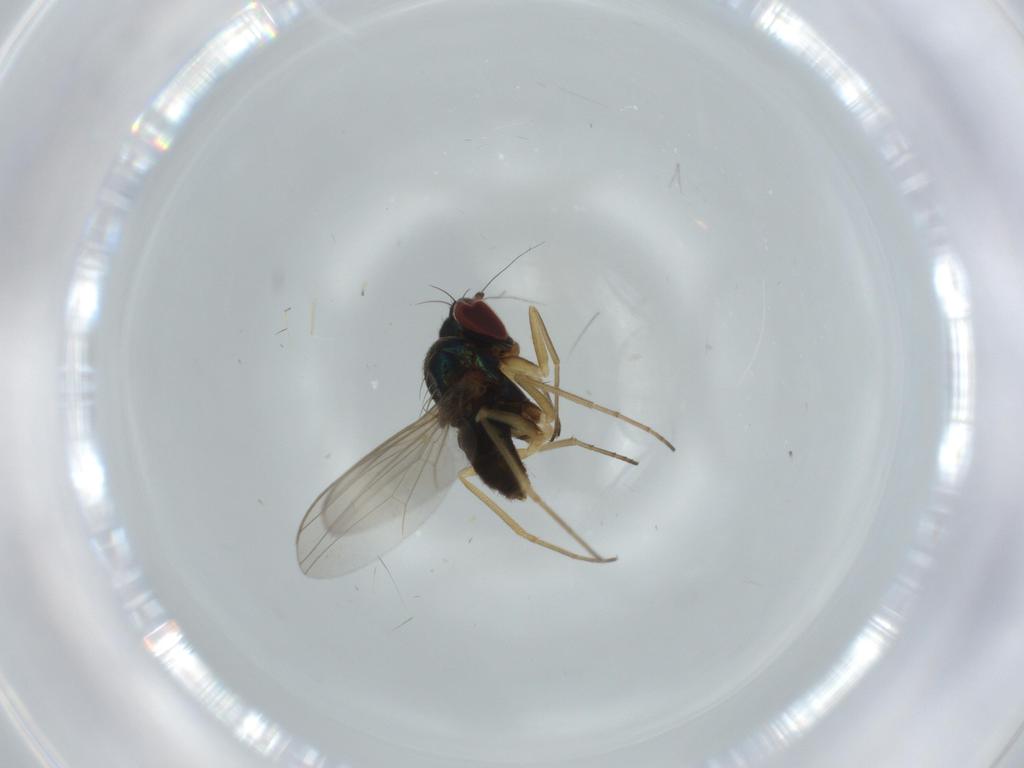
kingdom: Animalia
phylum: Arthropoda
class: Insecta
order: Diptera
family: Dolichopodidae
